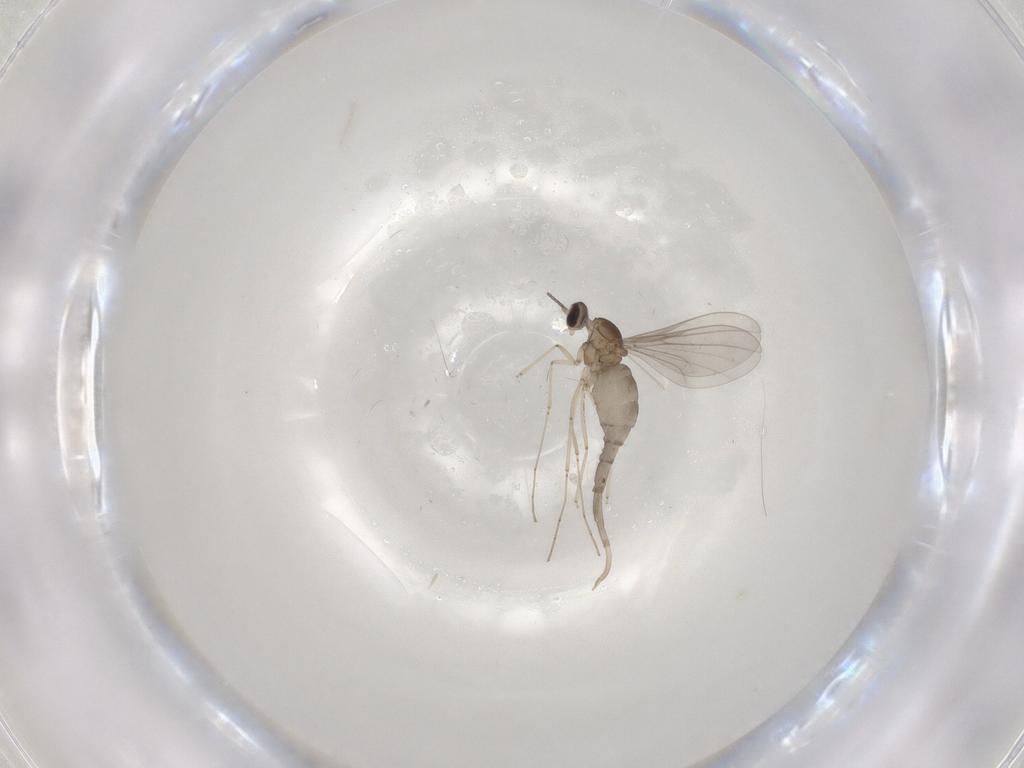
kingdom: Animalia
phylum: Arthropoda
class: Insecta
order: Diptera
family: Cecidomyiidae
